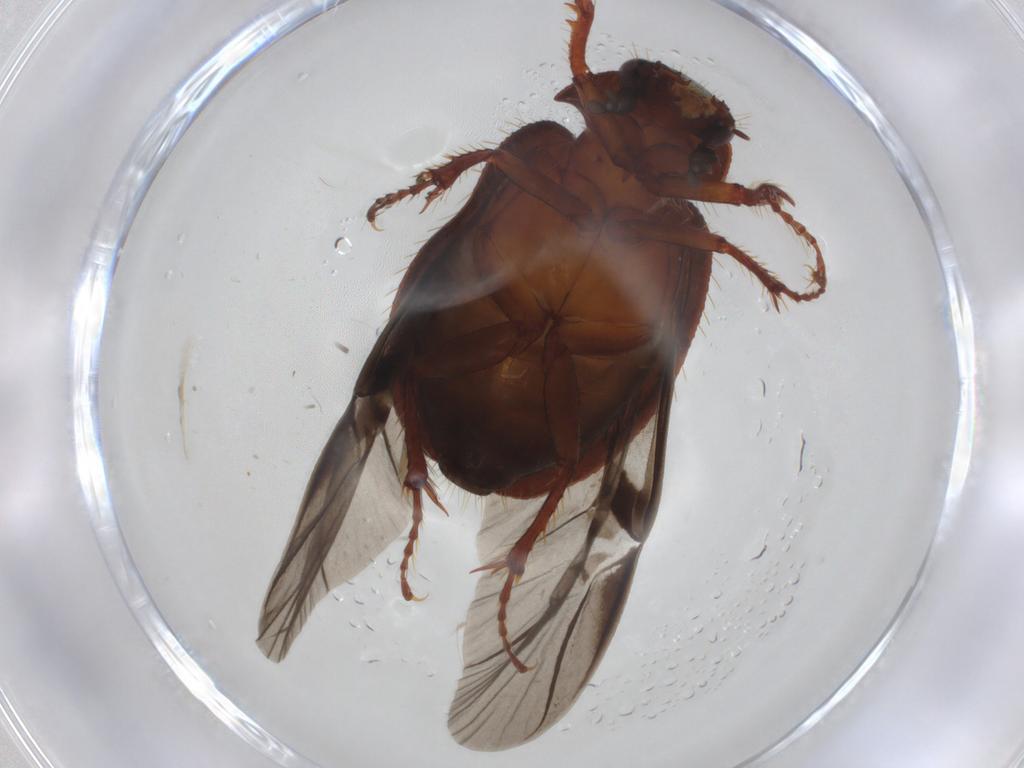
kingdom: Animalia
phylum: Arthropoda
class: Insecta
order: Coleoptera
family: Hybosoridae
